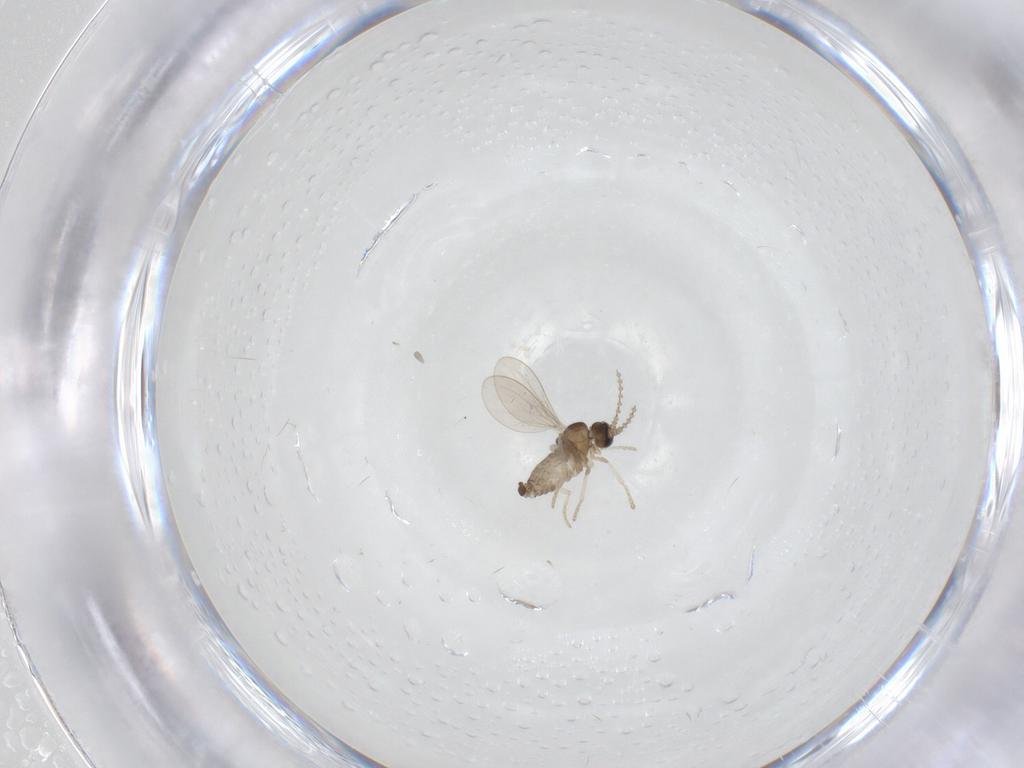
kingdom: Animalia
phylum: Arthropoda
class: Insecta
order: Diptera
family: Cecidomyiidae
